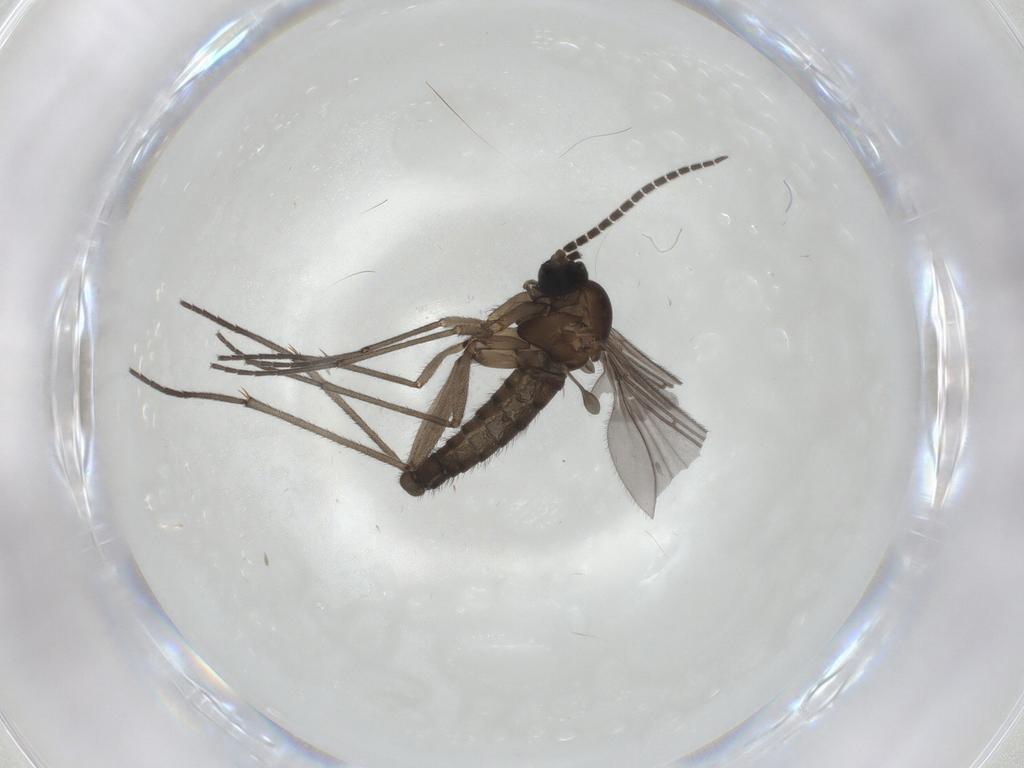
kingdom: Animalia
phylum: Arthropoda
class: Insecta
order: Diptera
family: Sciaridae
